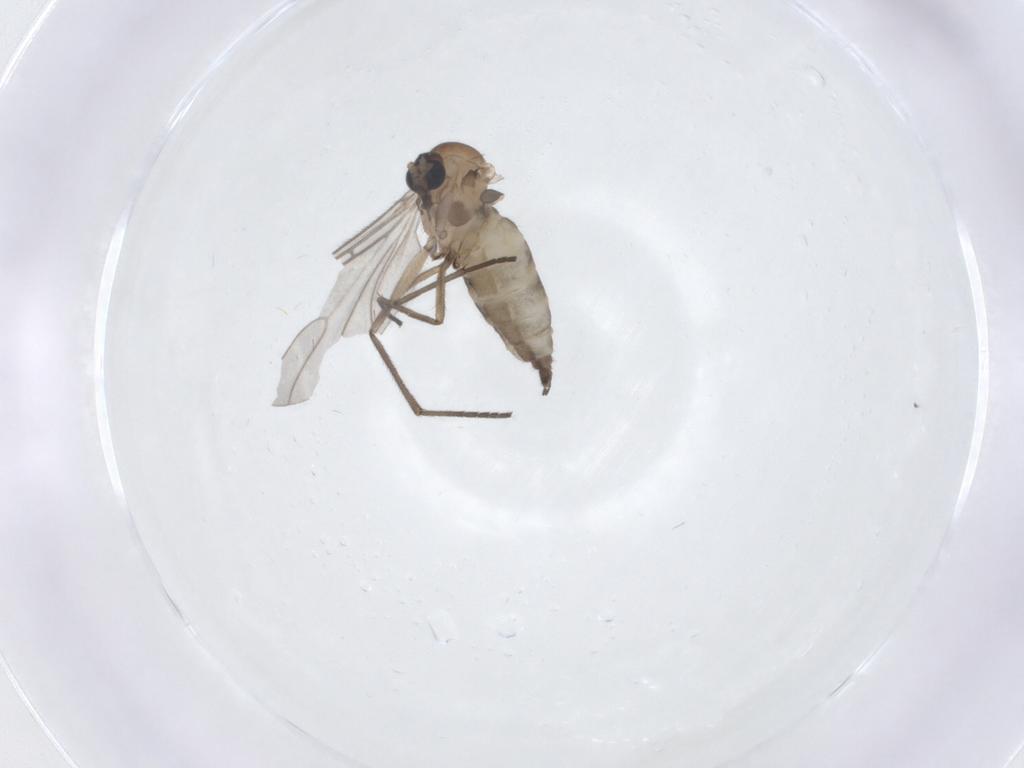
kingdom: Animalia
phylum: Arthropoda
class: Insecta
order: Diptera
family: Sciaridae
